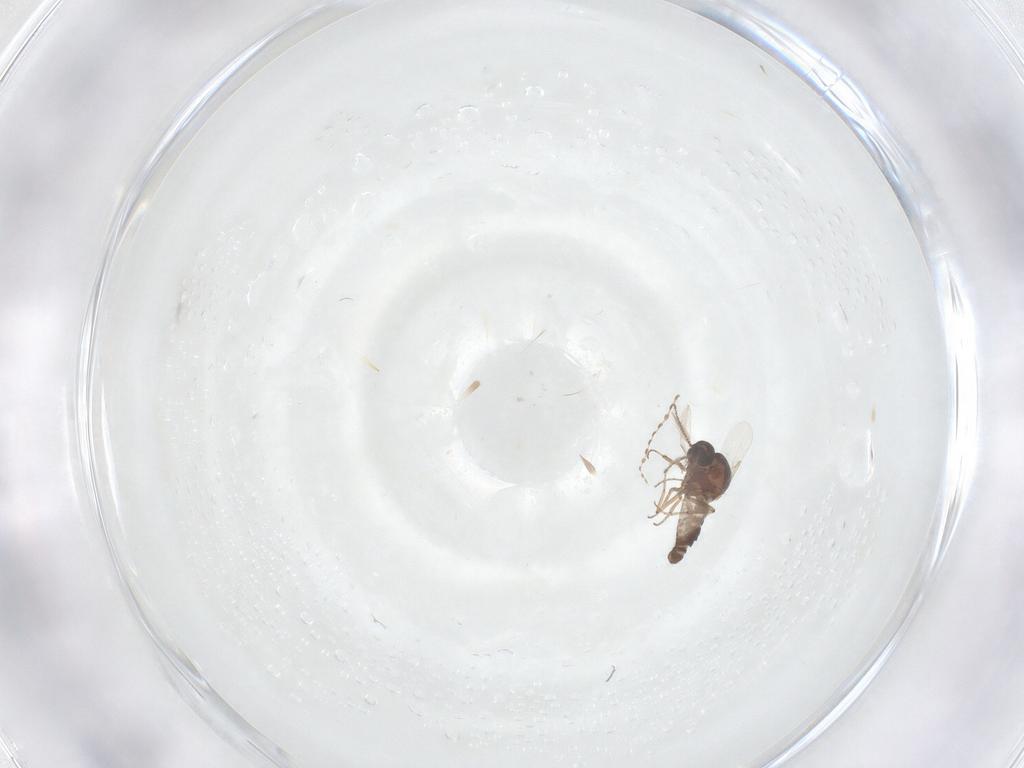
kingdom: Animalia
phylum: Arthropoda
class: Insecta
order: Diptera
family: Ceratopogonidae
